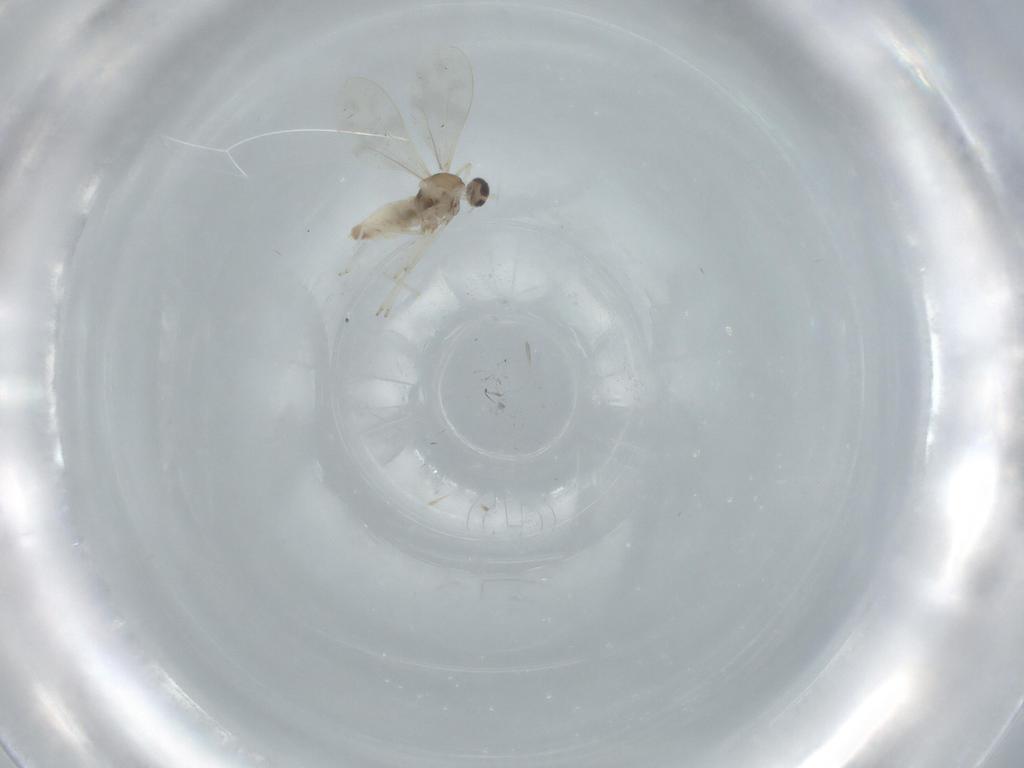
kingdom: Animalia
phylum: Arthropoda
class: Insecta
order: Diptera
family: Cecidomyiidae
